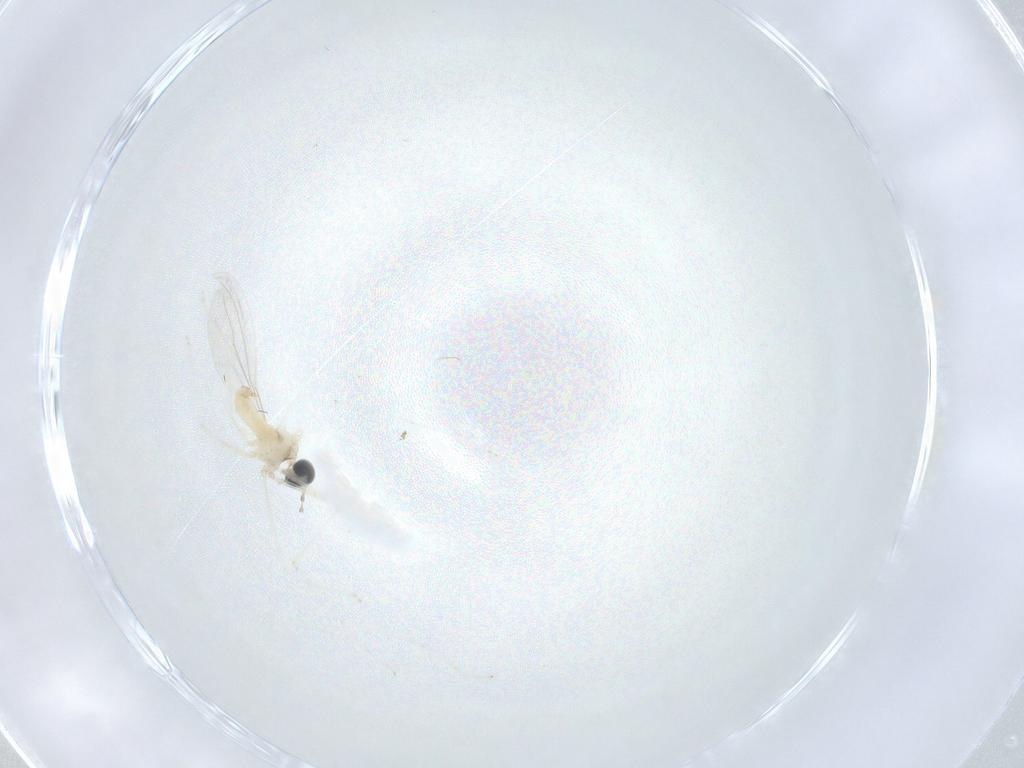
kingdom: Animalia
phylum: Arthropoda
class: Insecta
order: Diptera
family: Cecidomyiidae
